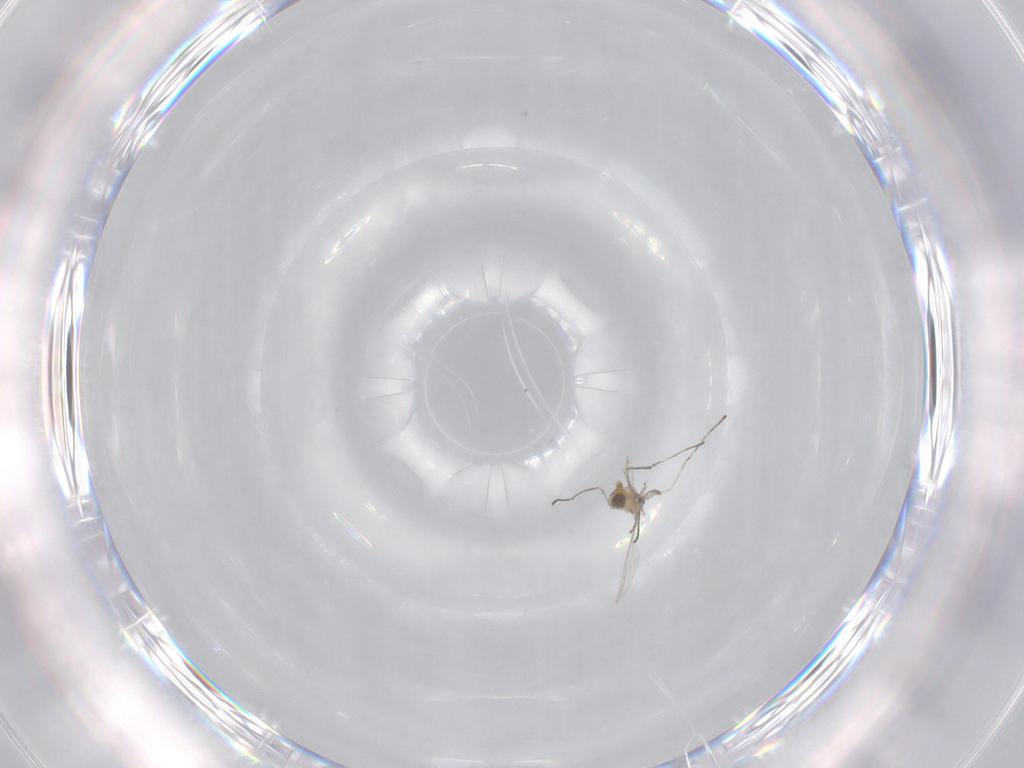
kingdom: Animalia
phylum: Arthropoda
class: Insecta
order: Diptera
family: Cecidomyiidae
